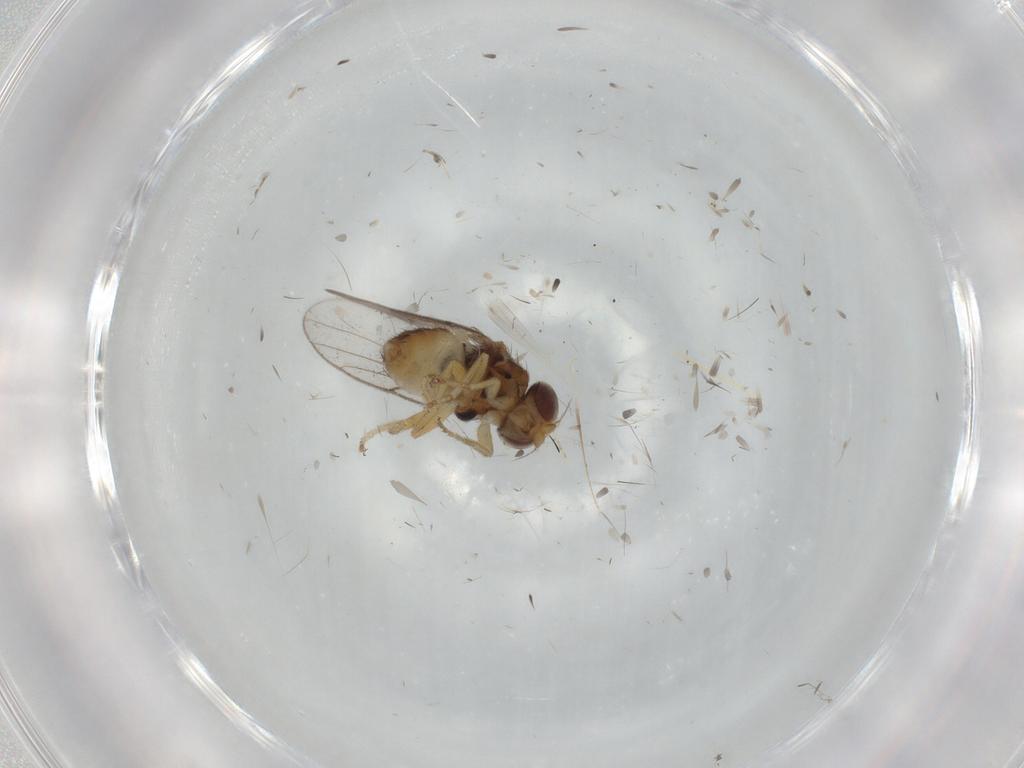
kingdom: Animalia
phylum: Arthropoda
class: Insecta
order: Diptera
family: Chloropidae
